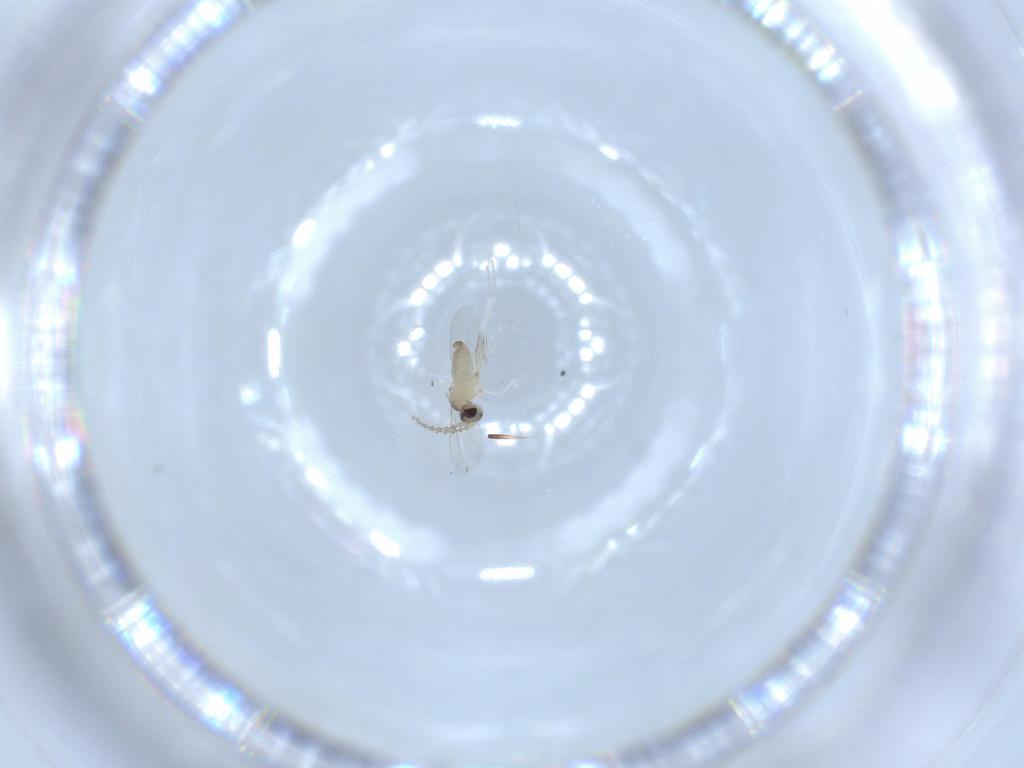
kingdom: Animalia
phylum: Arthropoda
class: Insecta
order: Diptera
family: Cecidomyiidae
